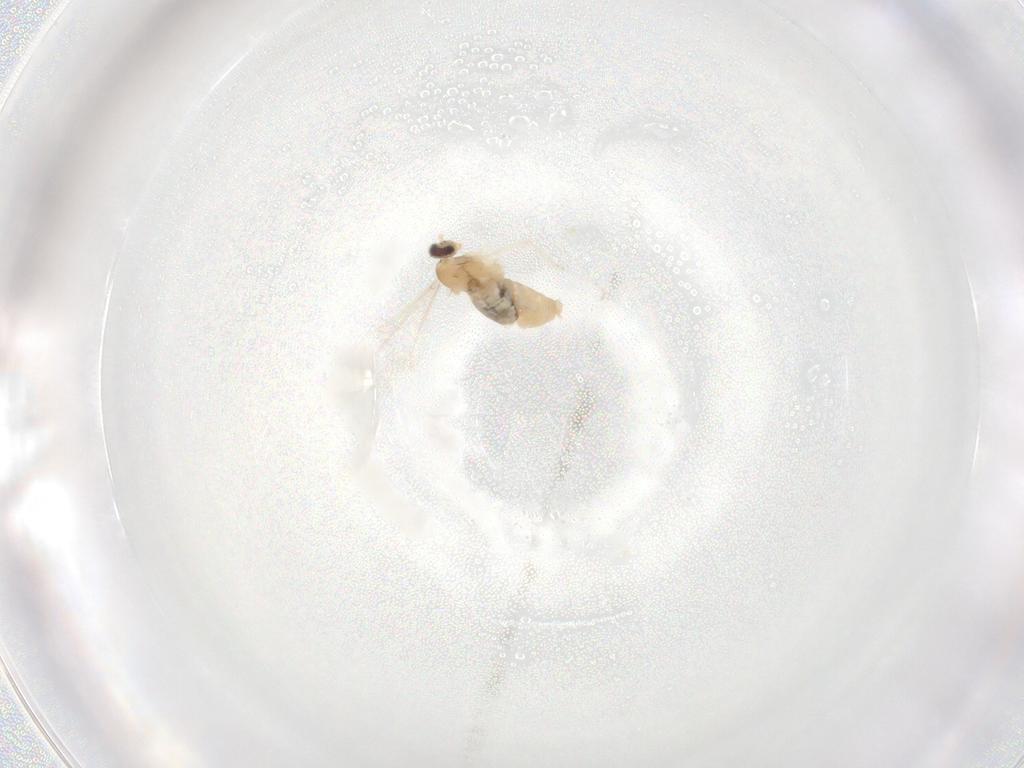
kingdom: Animalia
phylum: Arthropoda
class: Insecta
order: Diptera
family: Cecidomyiidae
